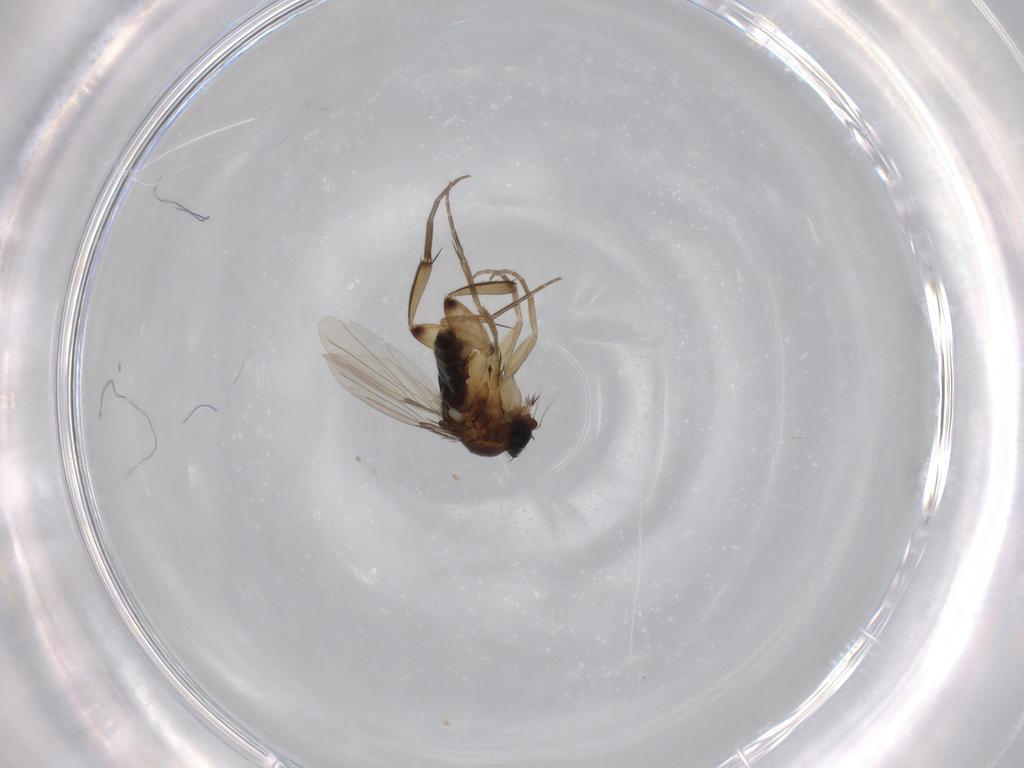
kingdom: Animalia
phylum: Arthropoda
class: Insecta
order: Diptera
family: Phoridae
